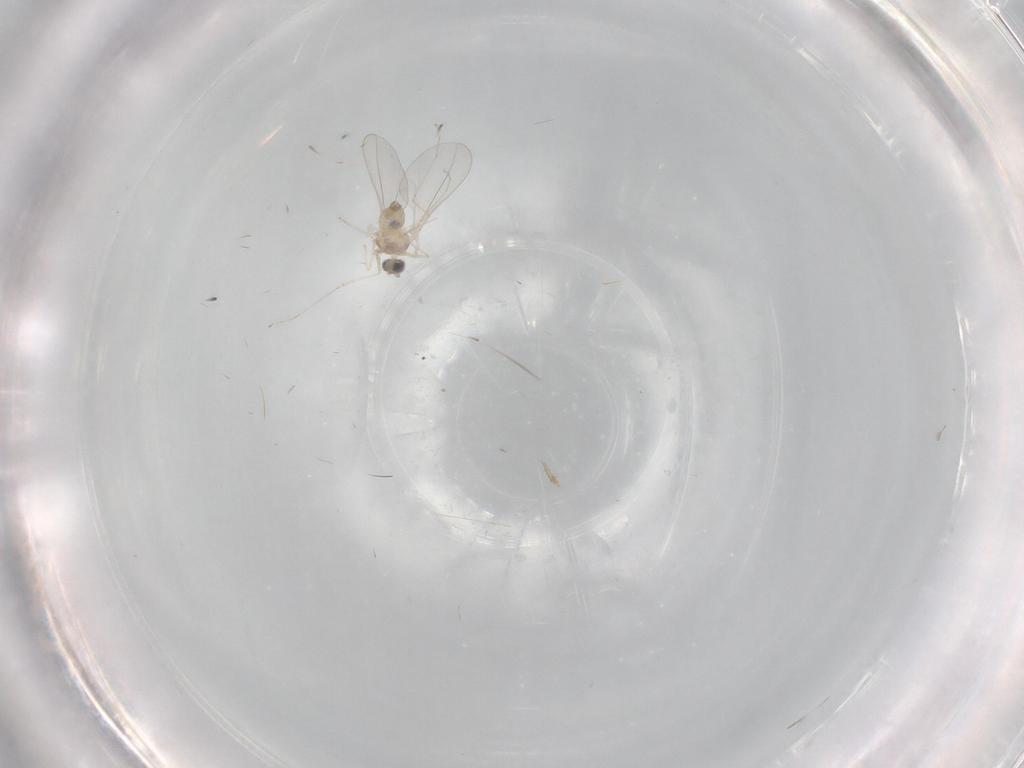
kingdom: Animalia
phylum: Arthropoda
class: Insecta
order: Diptera
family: Cecidomyiidae
